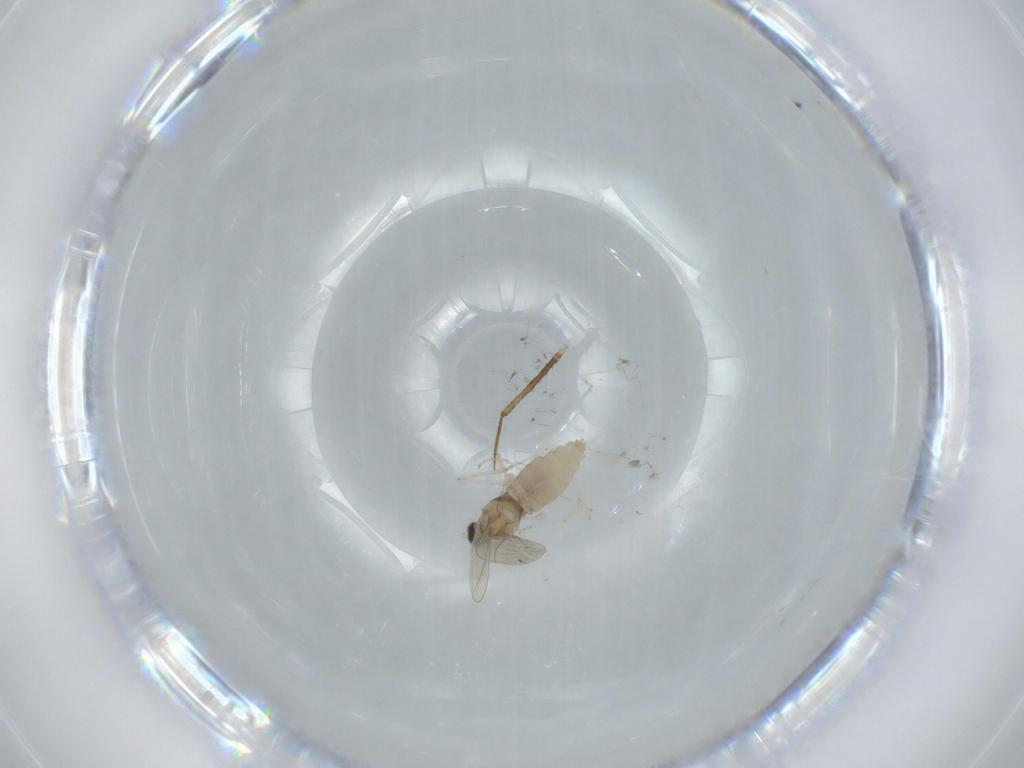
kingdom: Animalia
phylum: Arthropoda
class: Insecta
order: Diptera
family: Cecidomyiidae
